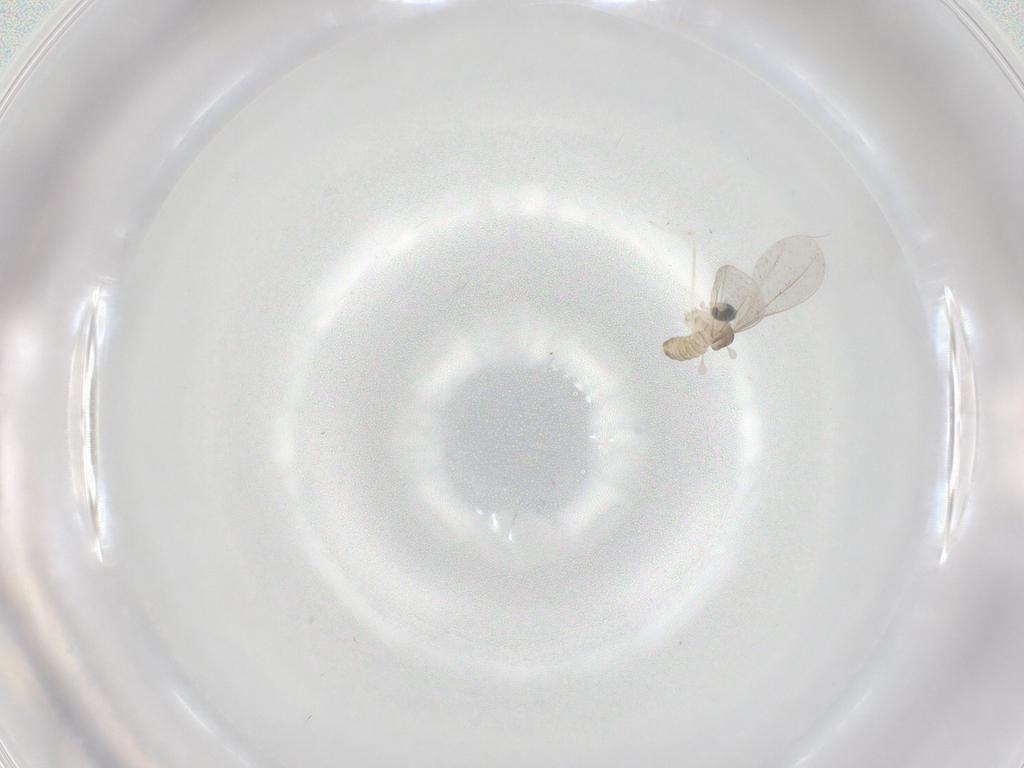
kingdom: Animalia
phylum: Arthropoda
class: Insecta
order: Diptera
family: Cecidomyiidae
